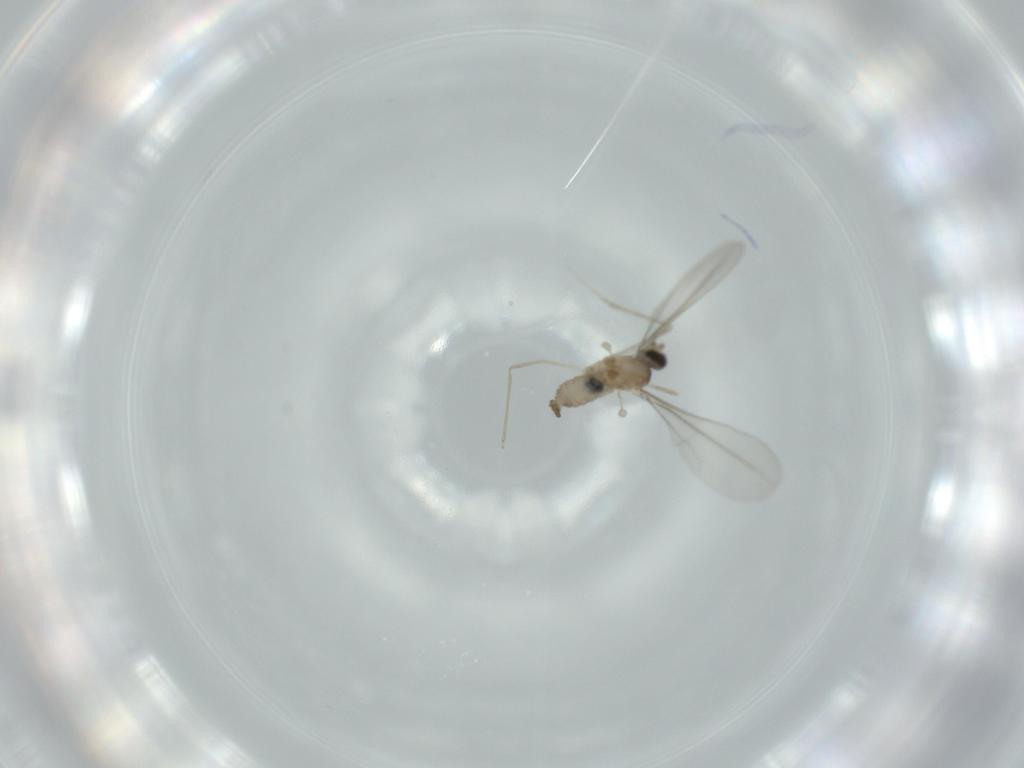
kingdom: Animalia
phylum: Arthropoda
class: Insecta
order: Diptera
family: Cecidomyiidae
